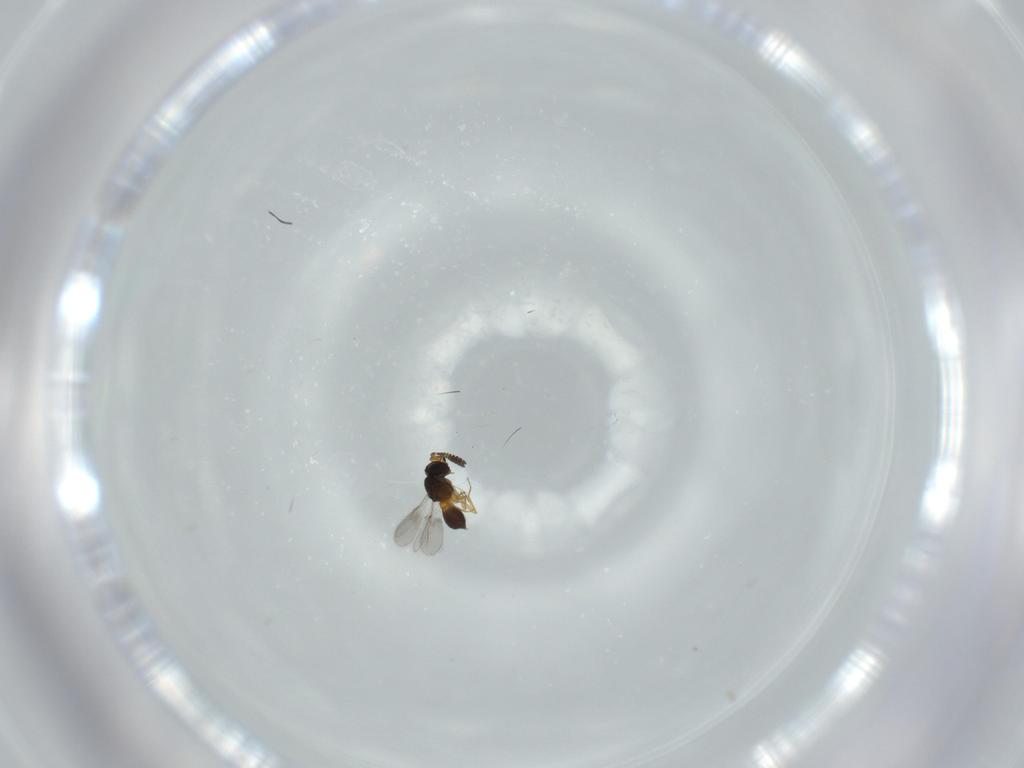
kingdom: Animalia
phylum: Arthropoda
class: Insecta
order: Hymenoptera
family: Scelionidae
